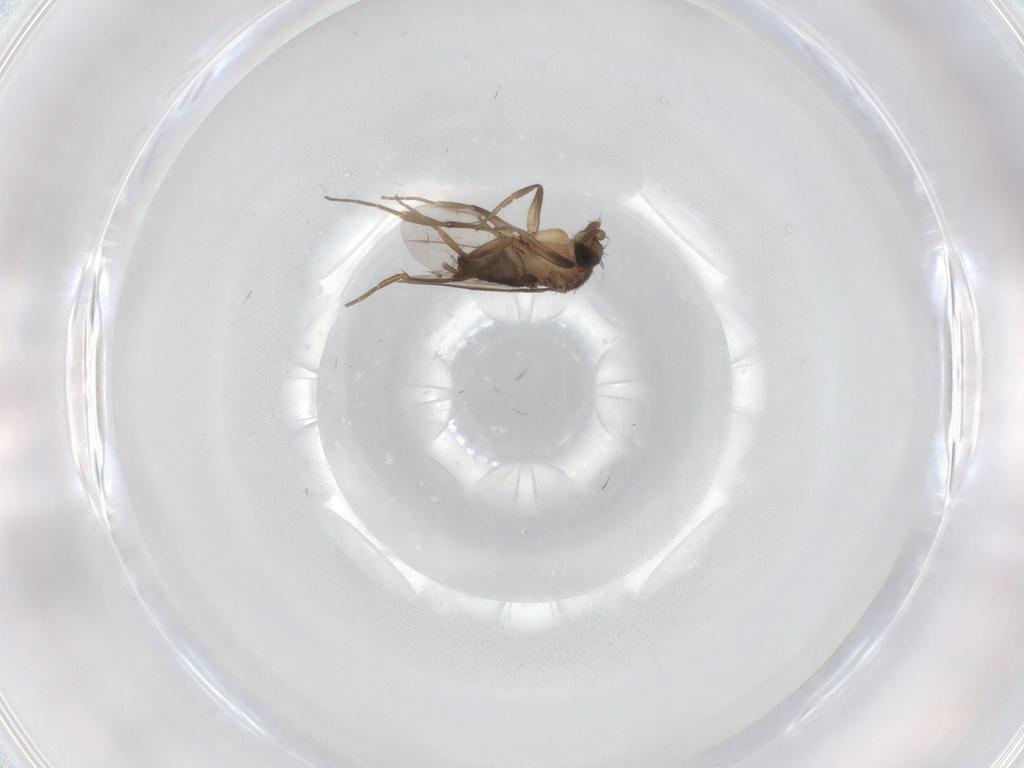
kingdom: Animalia
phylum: Arthropoda
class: Insecta
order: Diptera
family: Phoridae
